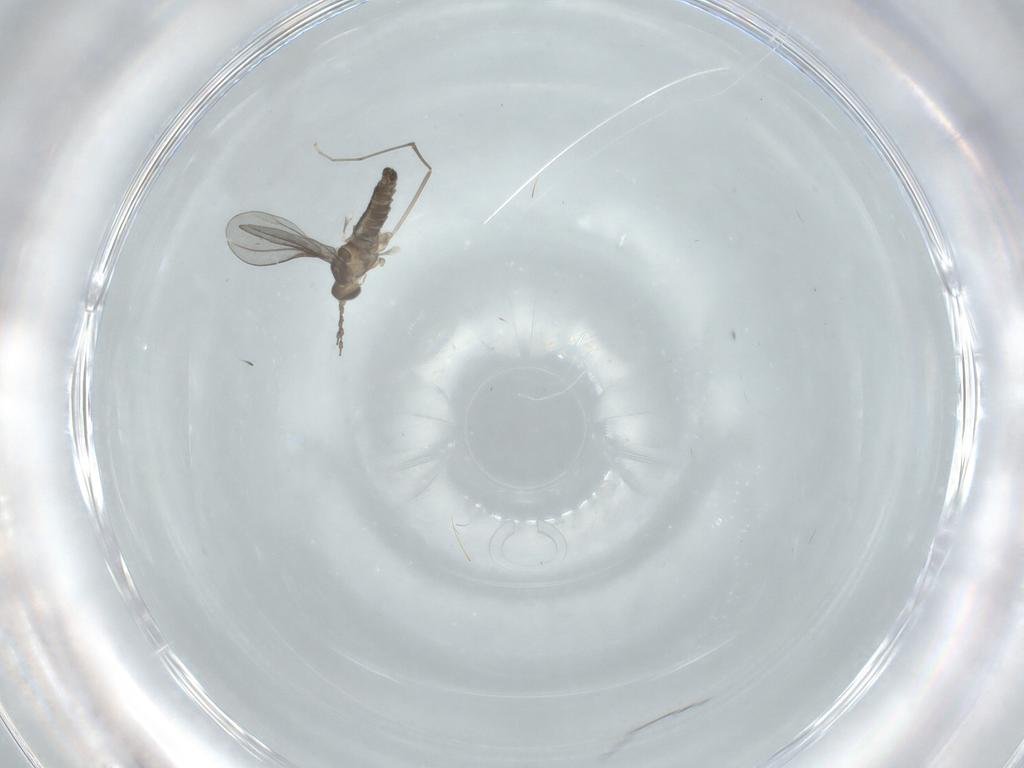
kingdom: Animalia
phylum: Arthropoda
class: Insecta
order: Diptera
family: Cecidomyiidae
